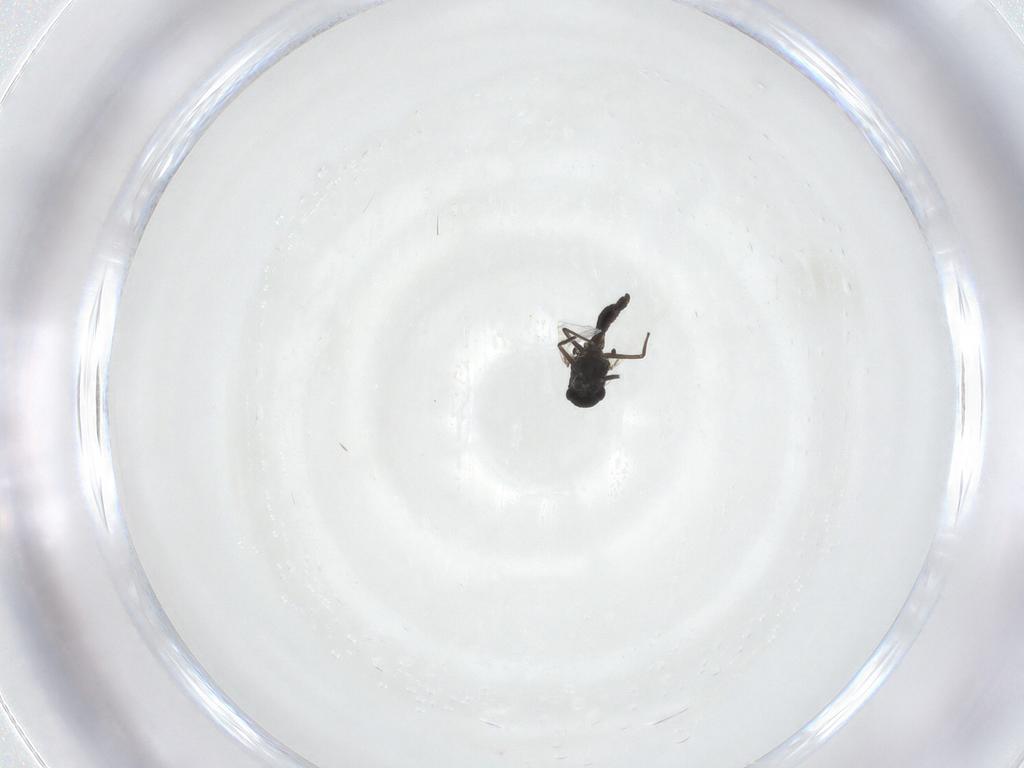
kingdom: Animalia
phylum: Arthropoda
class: Insecta
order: Diptera
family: Chironomidae
